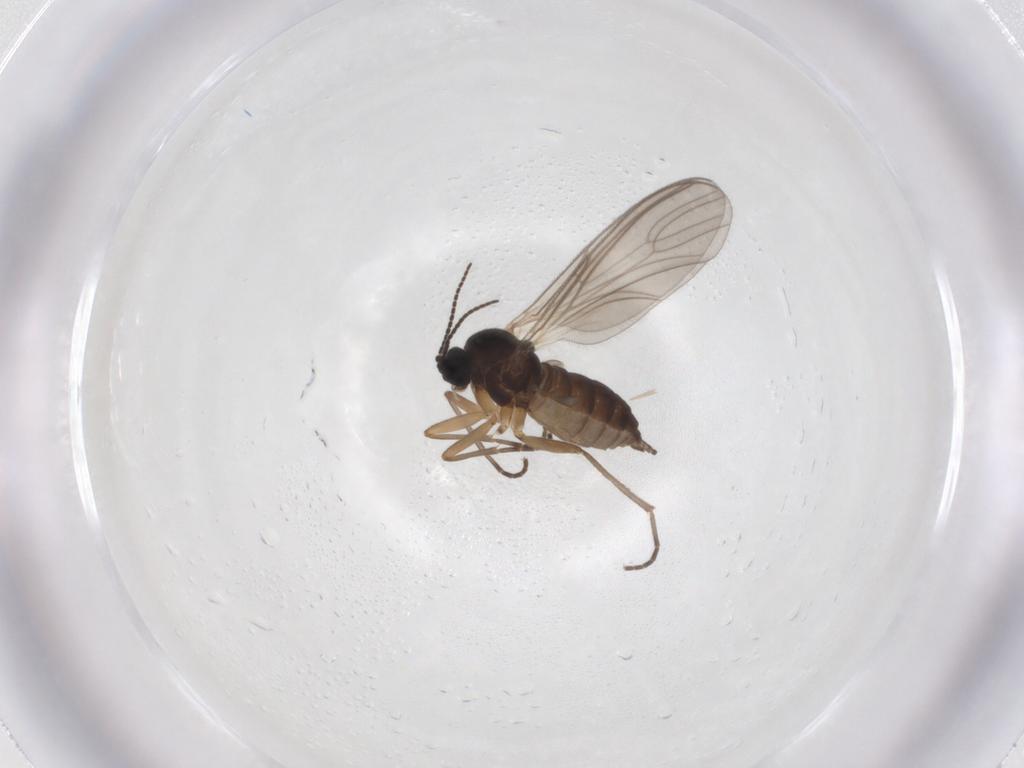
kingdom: Animalia
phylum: Arthropoda
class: Insecta
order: Diptera
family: Sciaridae
